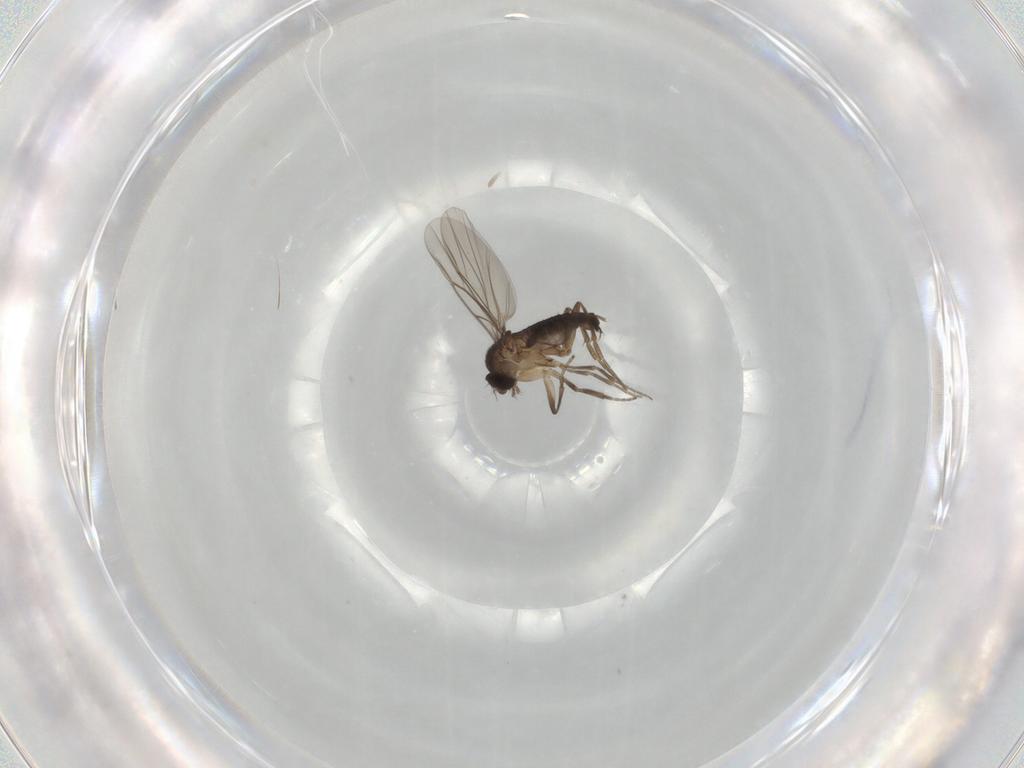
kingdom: Animalia
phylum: Arthropoda
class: Insecta
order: Diptera
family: Phoridae
